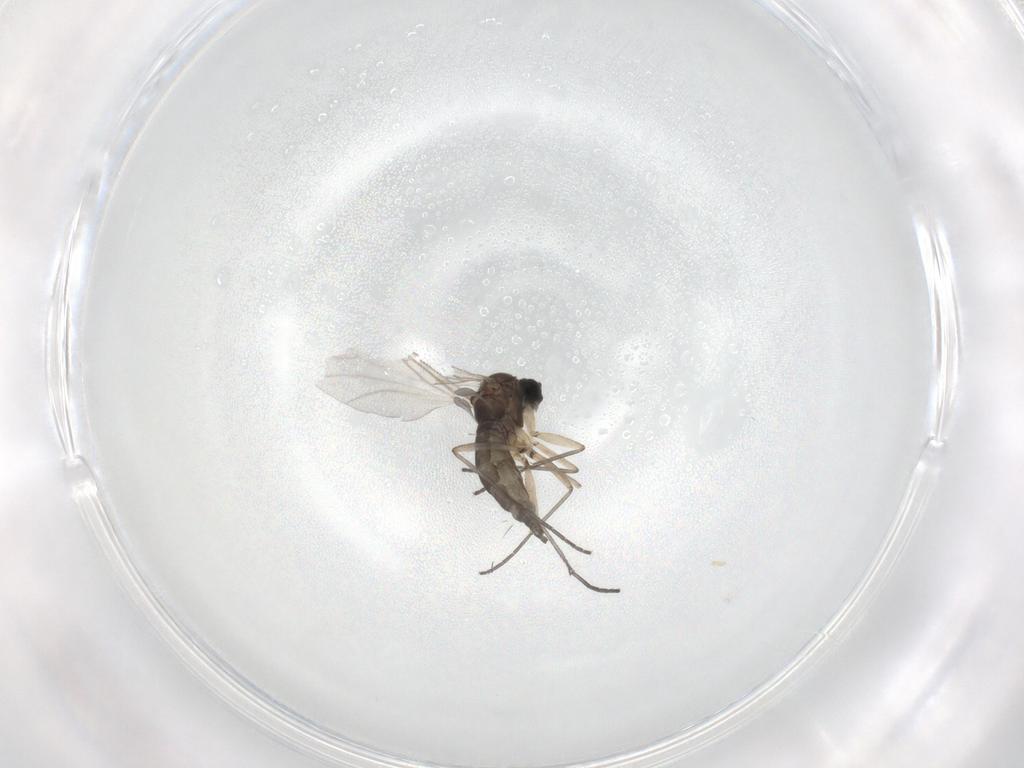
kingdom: Animalia
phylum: Arthropoda
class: Insecta
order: Diptera
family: Sciaridae
